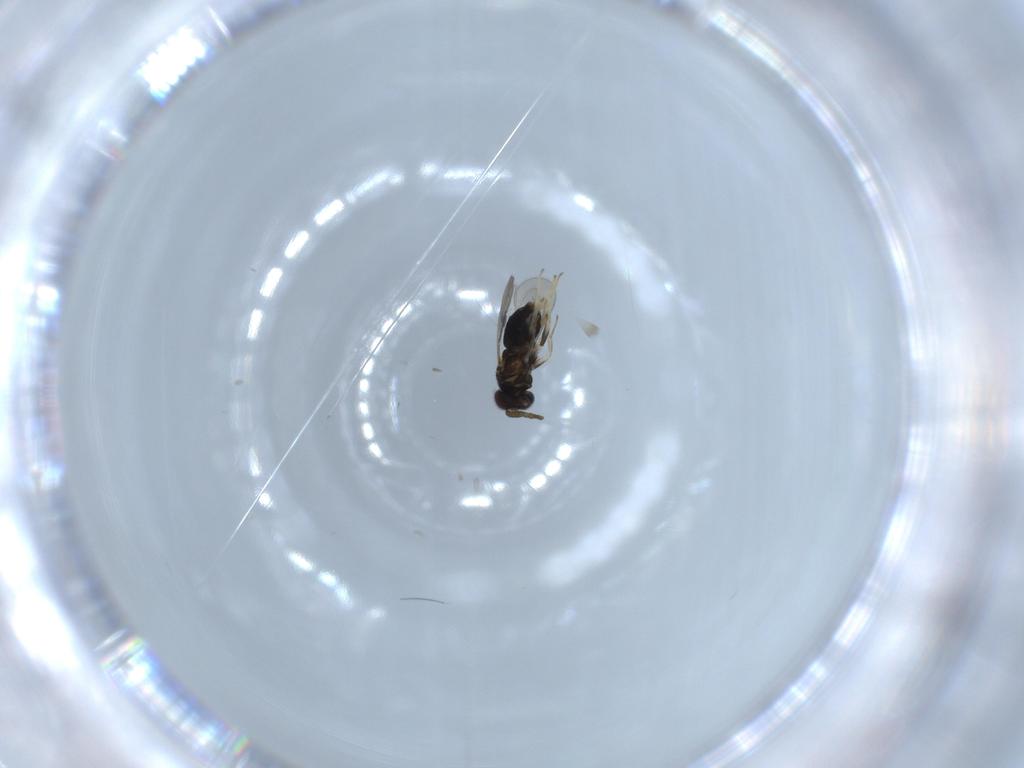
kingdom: Animalia
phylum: Arthropoda
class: Insecta
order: Hymenoptera
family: Aphelinidae
